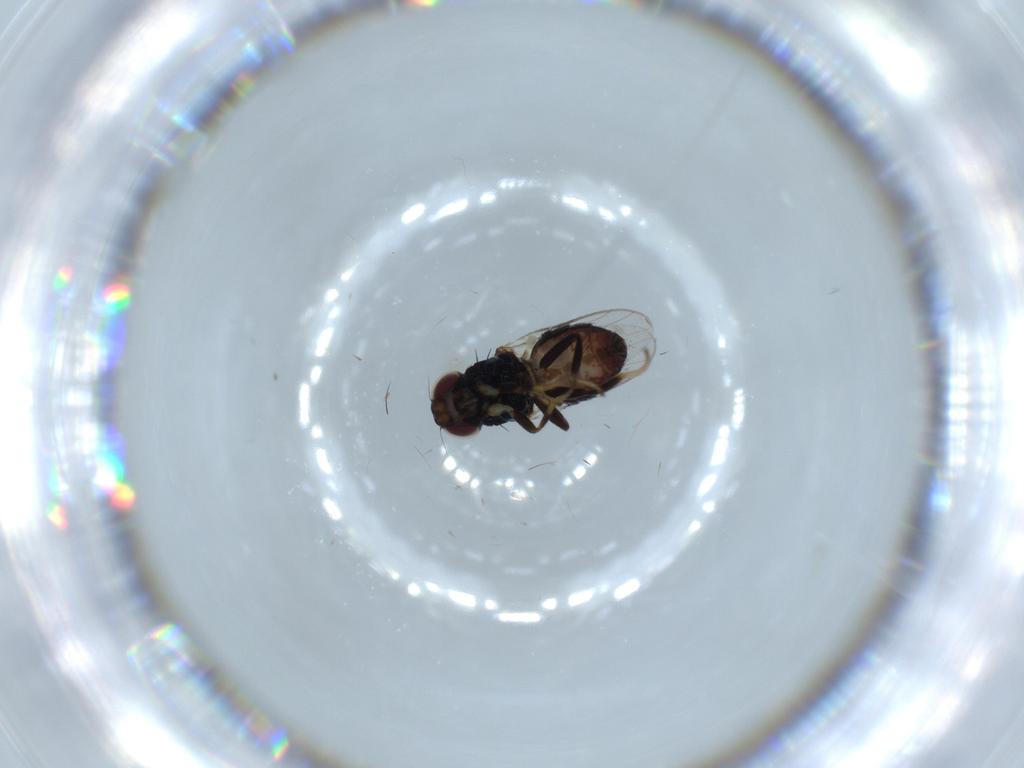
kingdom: Animalia
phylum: Arthropoda
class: Insecta
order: Diptera
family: Chloropidae
